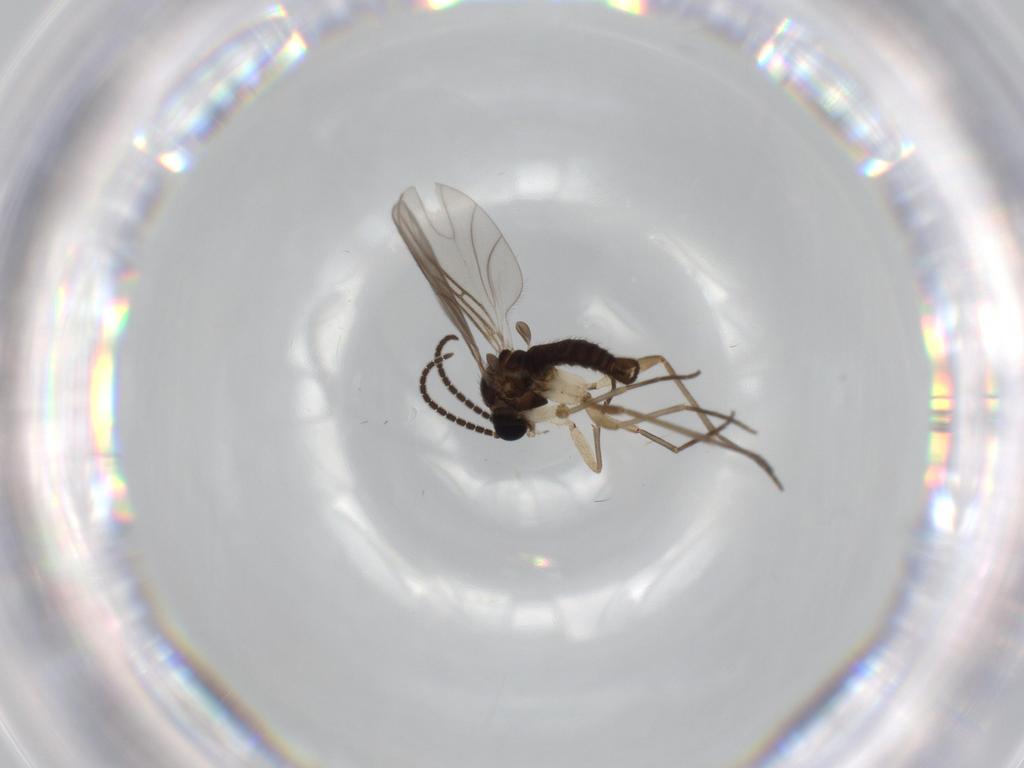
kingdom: Animalia
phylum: Arthropoda
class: Insecta
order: Diptera
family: Sciaridae
